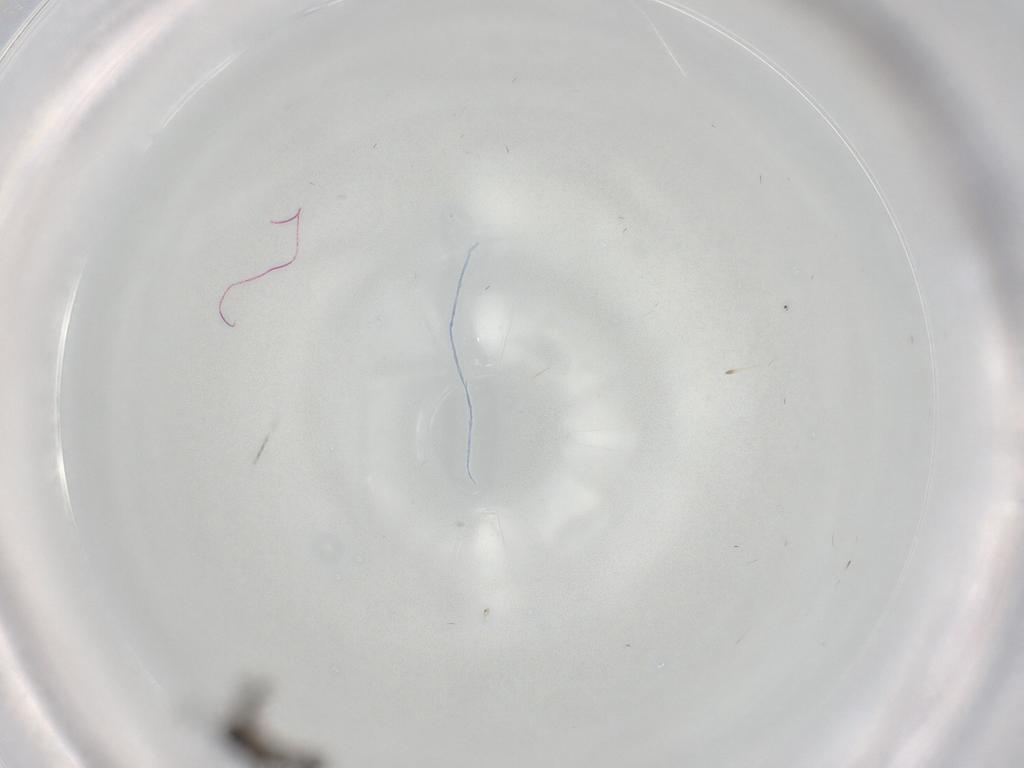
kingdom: Animalia
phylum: Arthropoda
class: Insecta
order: Diptera
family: Sciaridae
